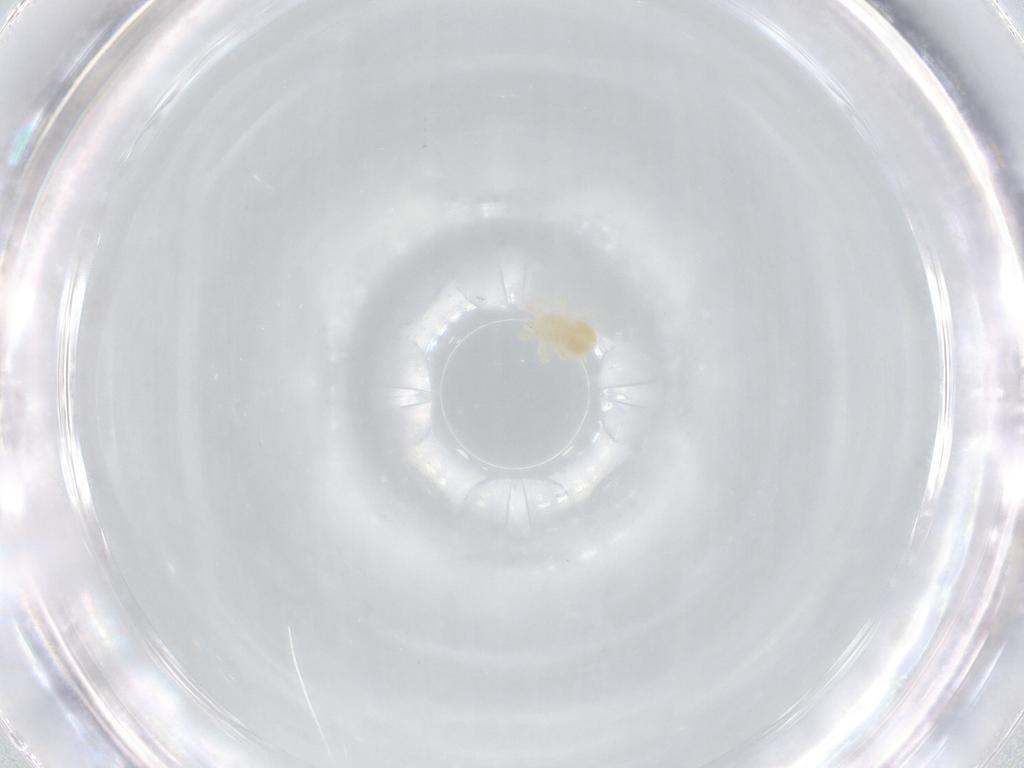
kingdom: Animalia
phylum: Arthropoda
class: Arachnida
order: Trombidiformes
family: Anystidae
